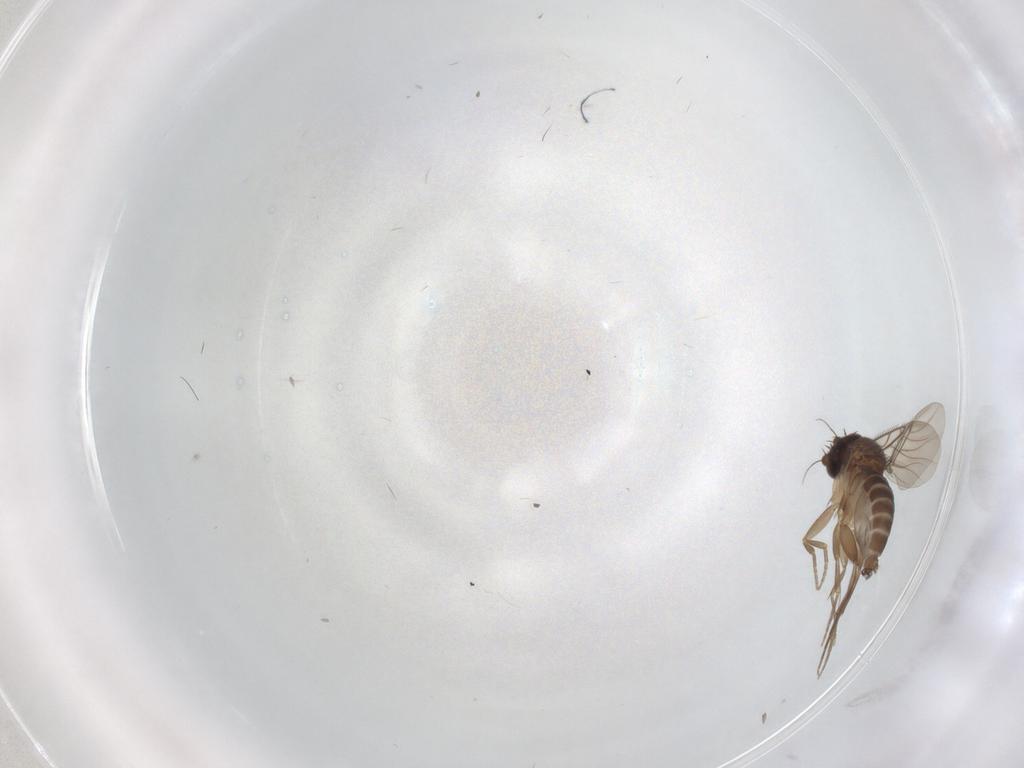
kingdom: Animalia
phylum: Arthropoda
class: Insecta
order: Diptera
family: Phoridae
